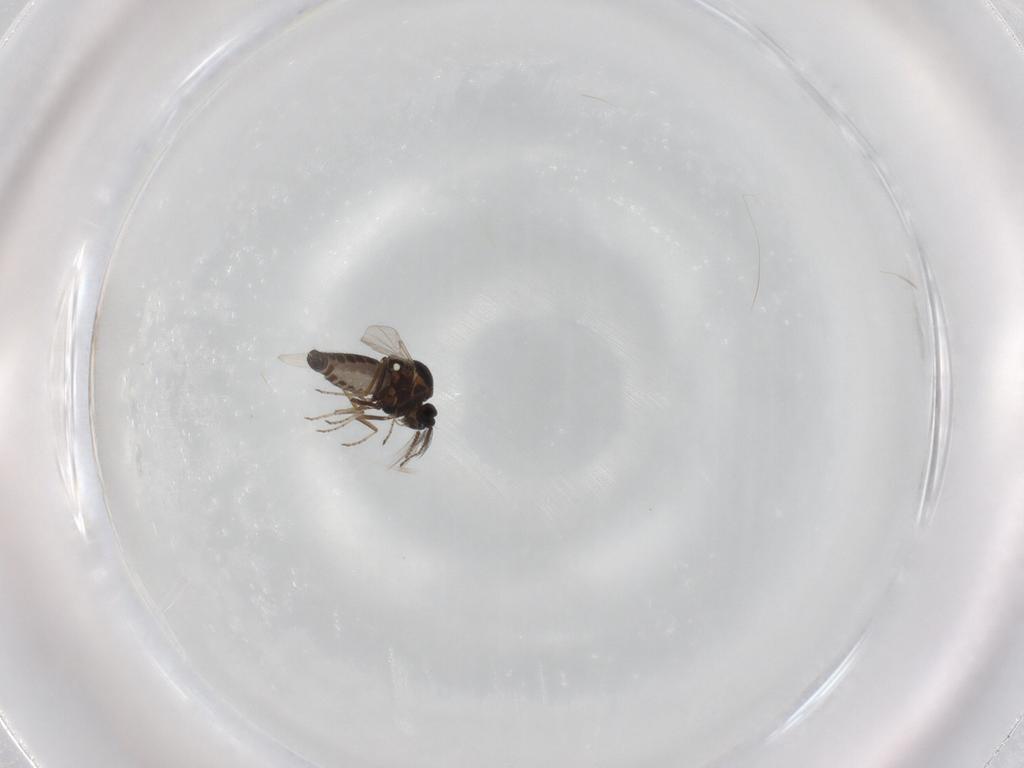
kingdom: Animalia
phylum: Arthropoda
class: Insecta
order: Diptera
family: Ceratopogonidae
